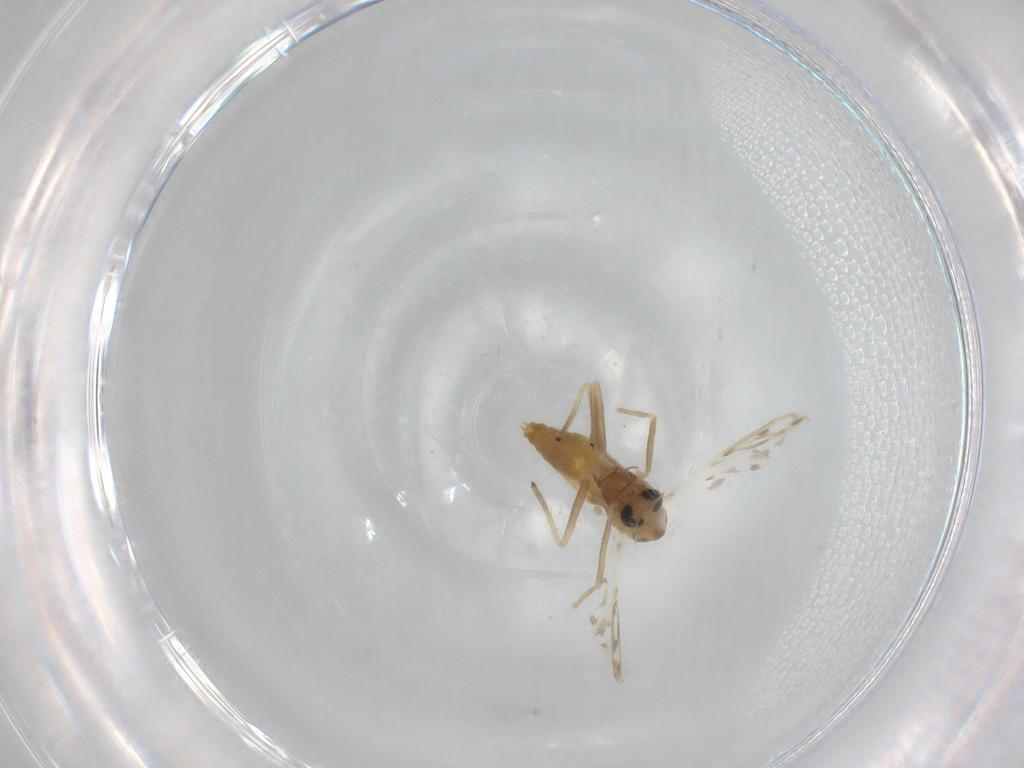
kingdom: Animalia
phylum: Arthropoda
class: Insecta
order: Diptera
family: Chironomidae
